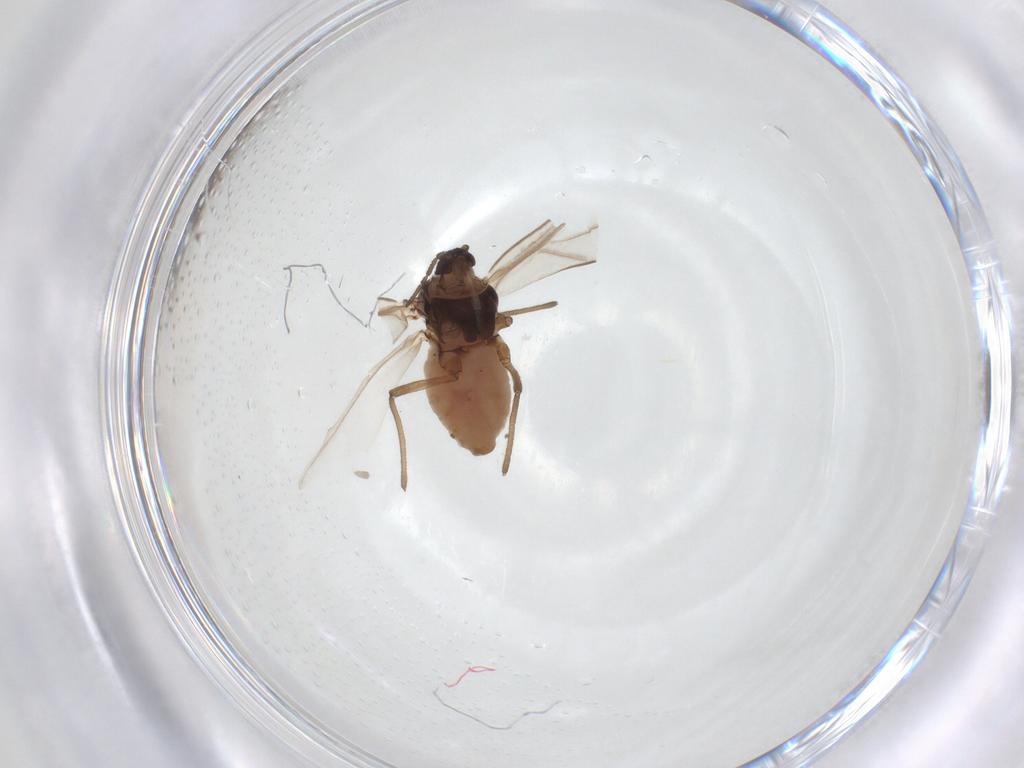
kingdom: Animalia
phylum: Arthropoda
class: Insecta
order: Hemiptera
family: Aphididae
